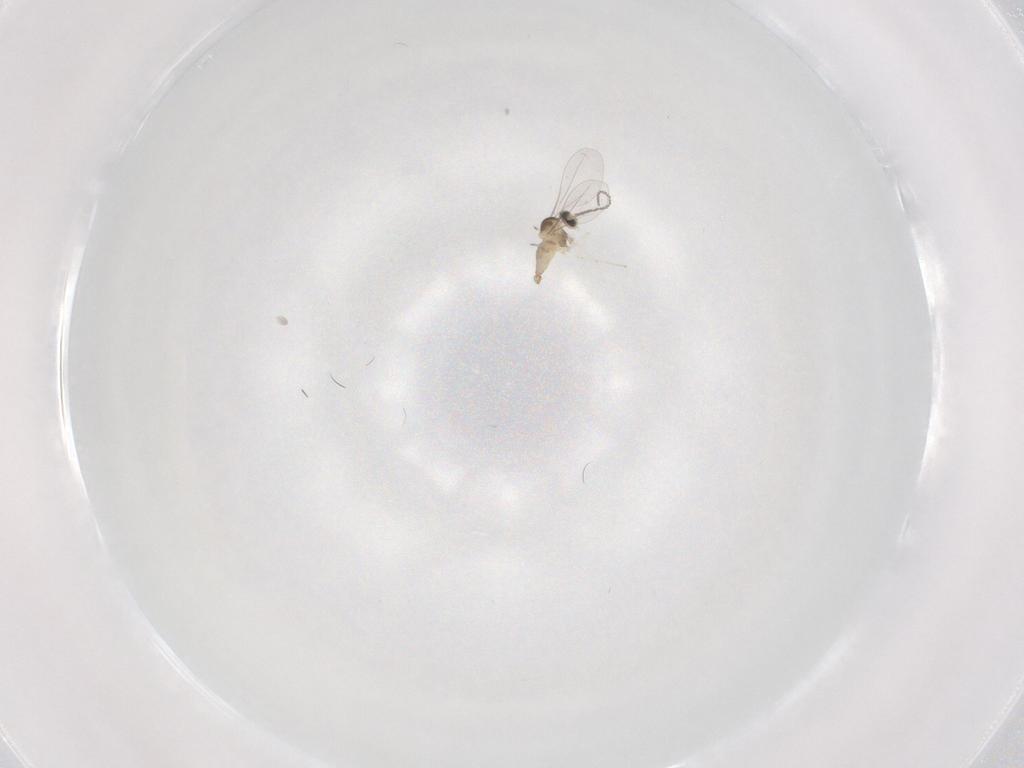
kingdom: Animalia
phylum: Arthropoda
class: Insecta
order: Diptera
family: Cecidomyiidae
